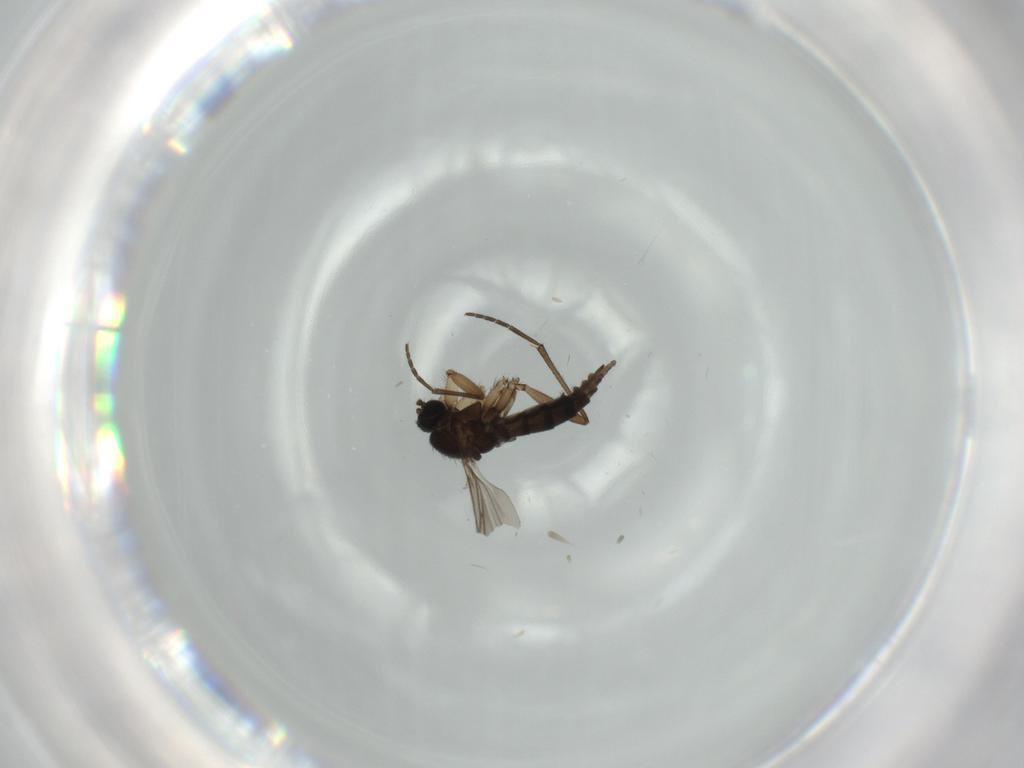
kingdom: Animalia
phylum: Arthropoda
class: Insecta
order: Diptera
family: Sciaridae
